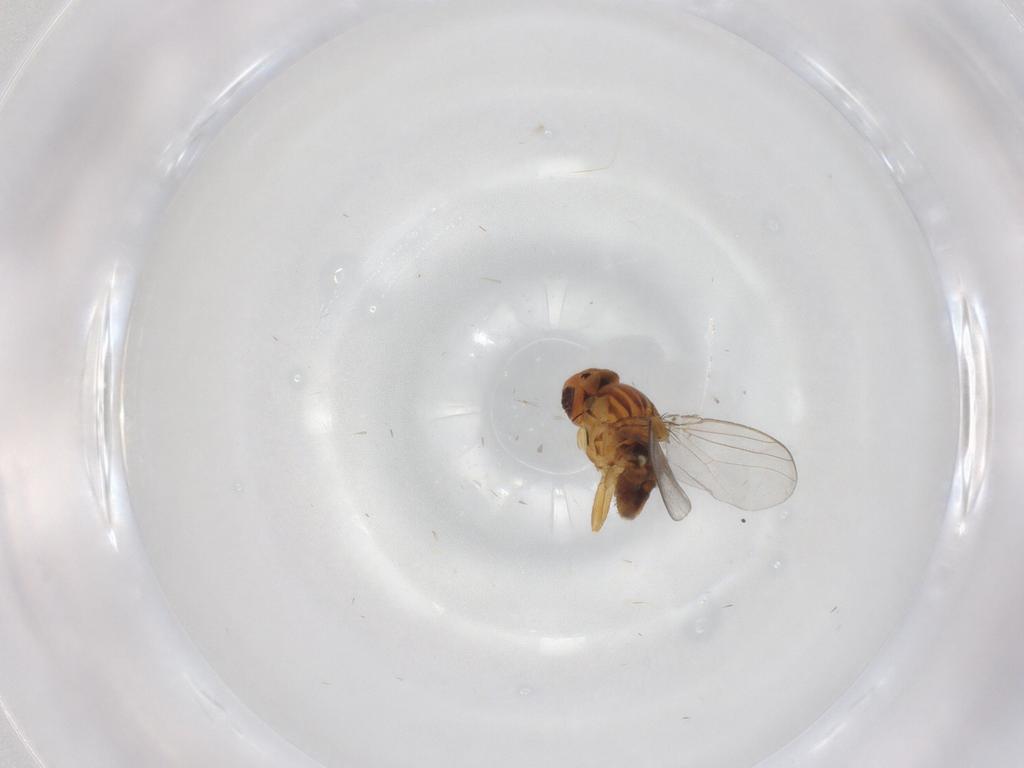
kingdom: Animalia
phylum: Arthropoda
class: Insecta
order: Diptera
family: Chloropidae
